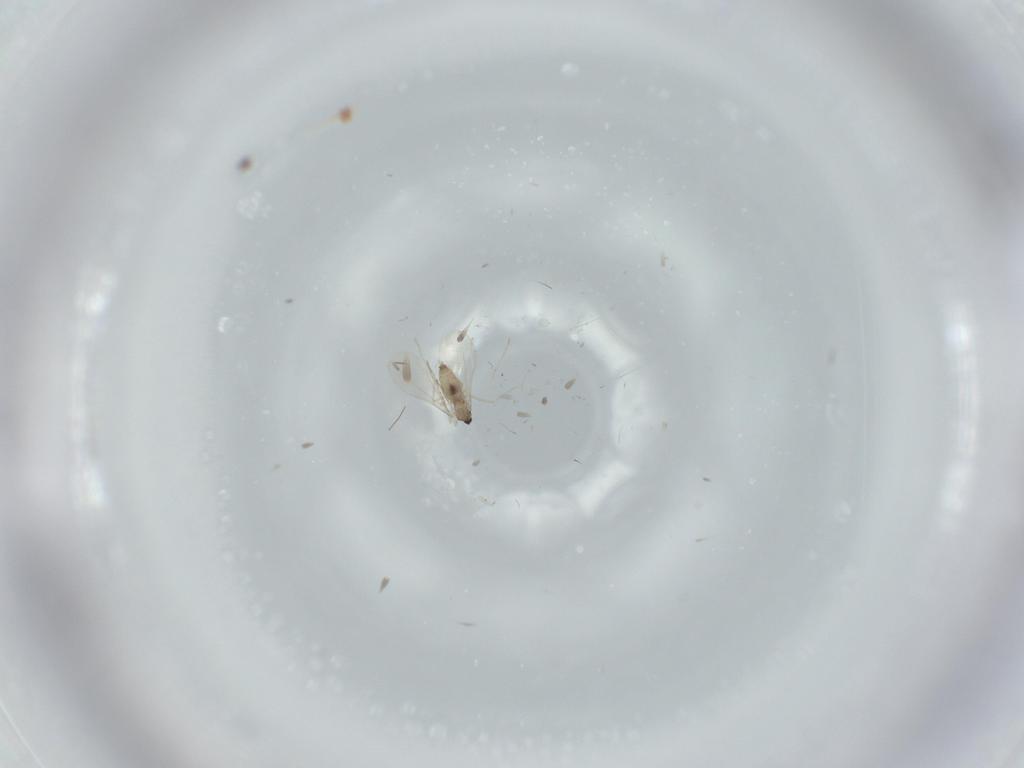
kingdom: Animalia
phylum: Arthropoda
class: Insecta
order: Diptera
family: Cecidomyiidae
